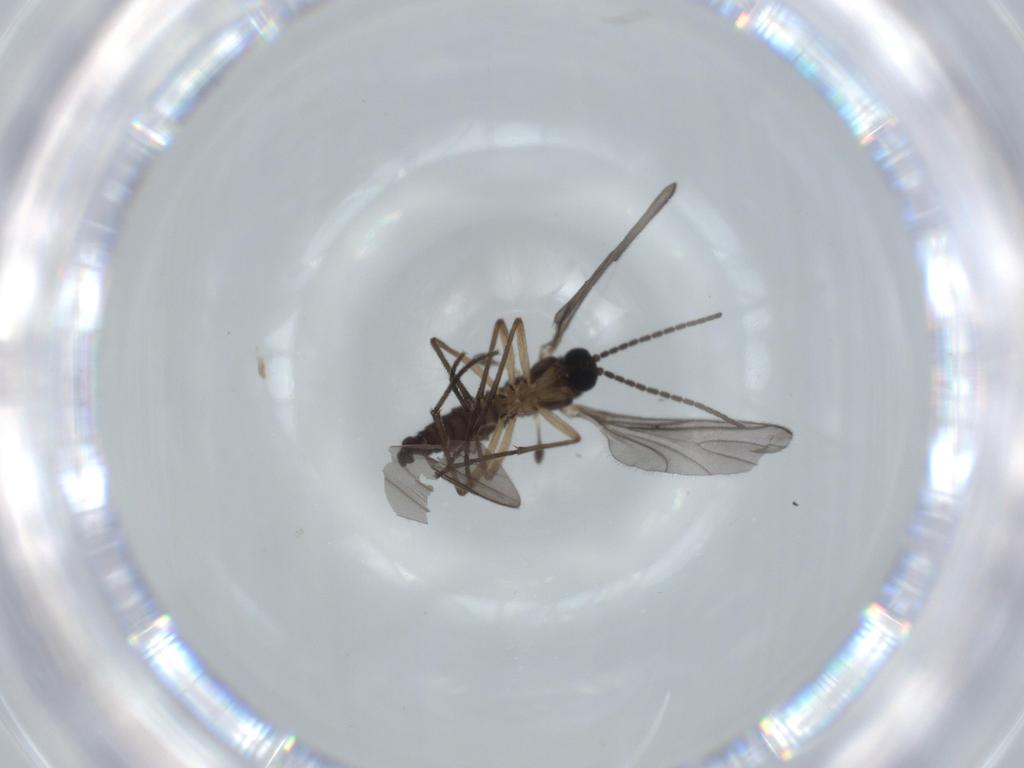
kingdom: Animalia
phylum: Arthropoda
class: Insecta
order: Diptera
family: Sciaridae
